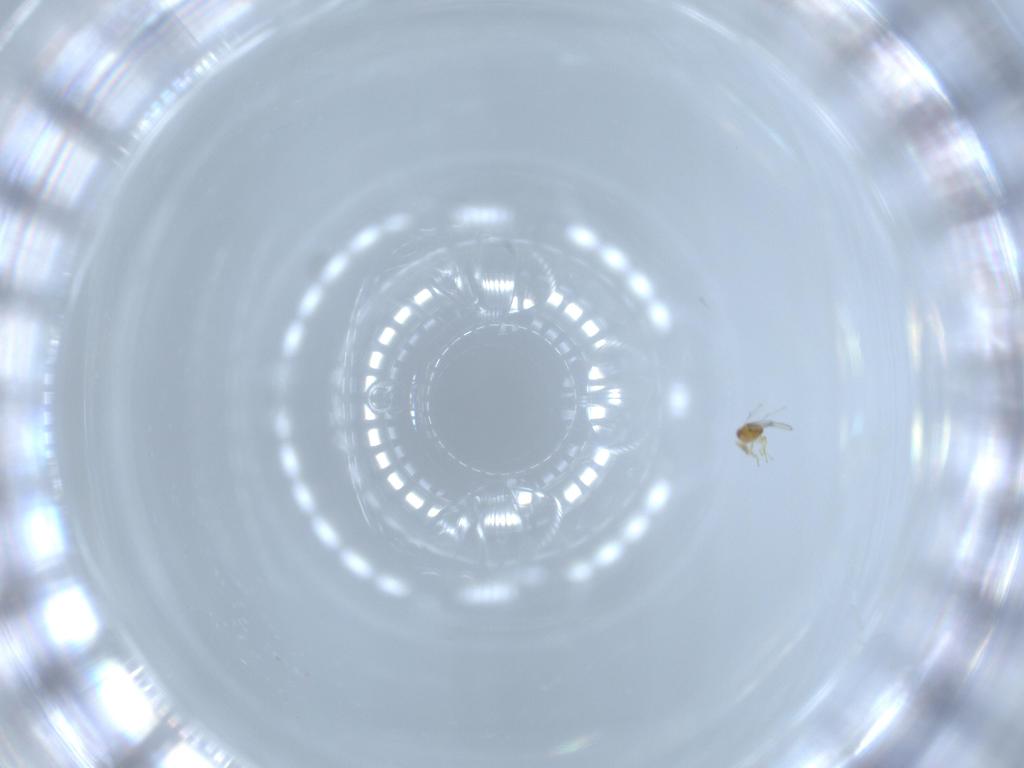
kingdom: Animalia
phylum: Arthropoda
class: Insecta
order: Hymenoptera
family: Trichogrammatidae
